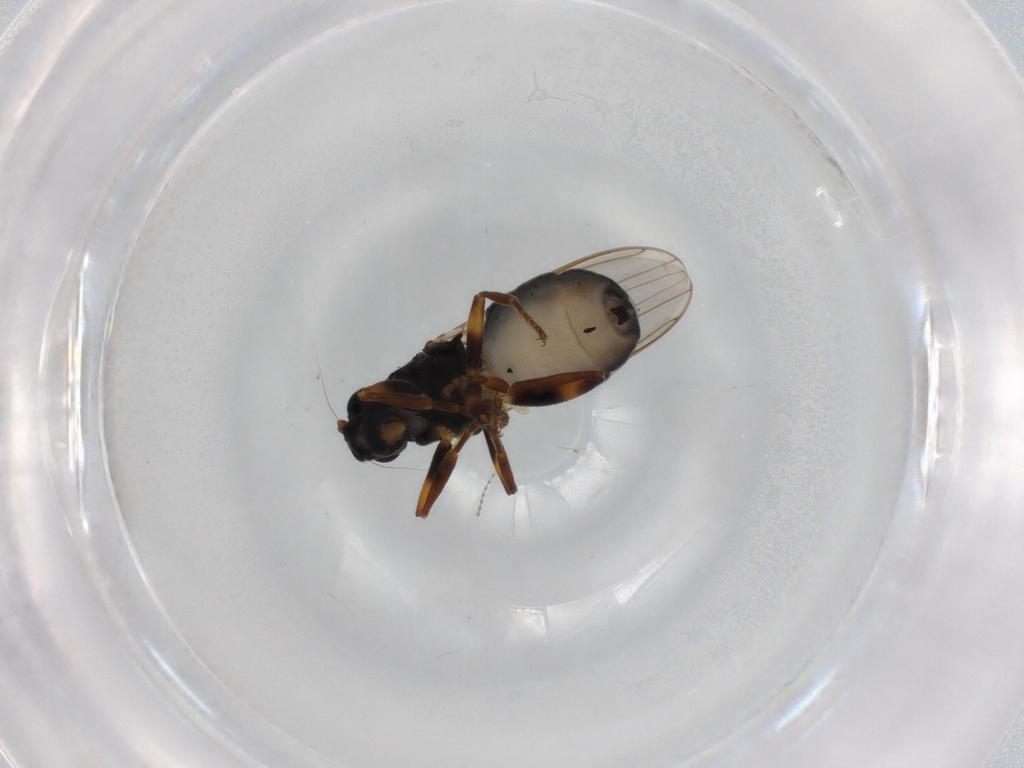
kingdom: Animalia
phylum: Arthropoda
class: Insecta
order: Diptera
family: Sphaeroceridae
